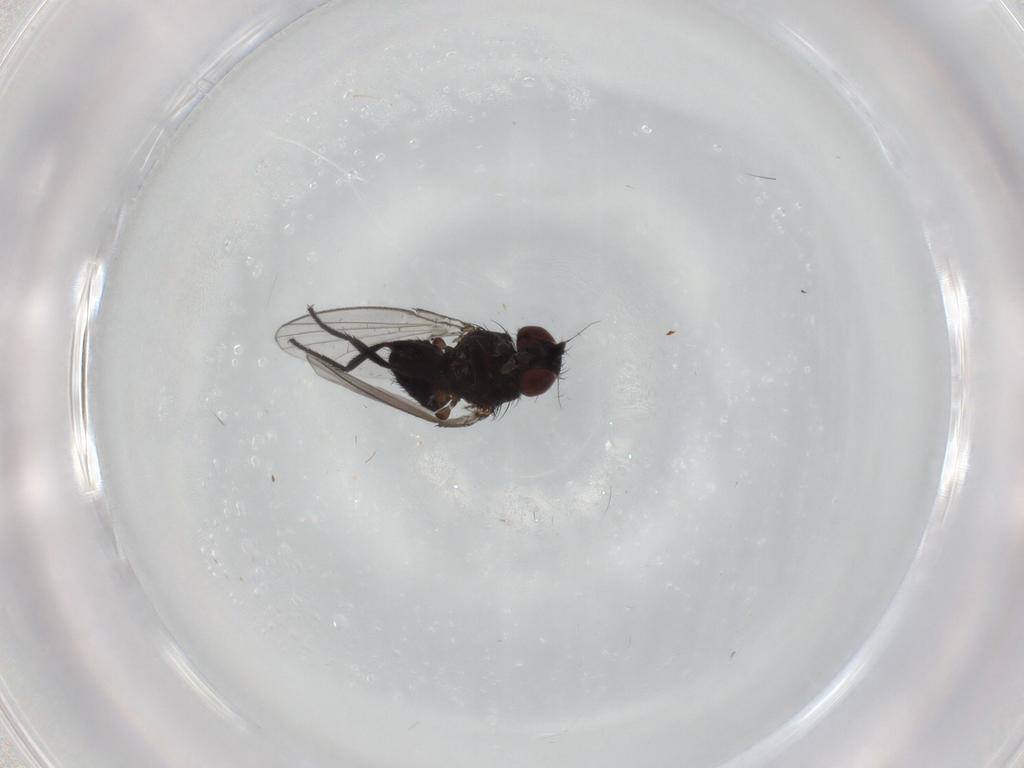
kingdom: Animalia
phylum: Arthropoda
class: Insecta
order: Diptera
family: Milichiidae
